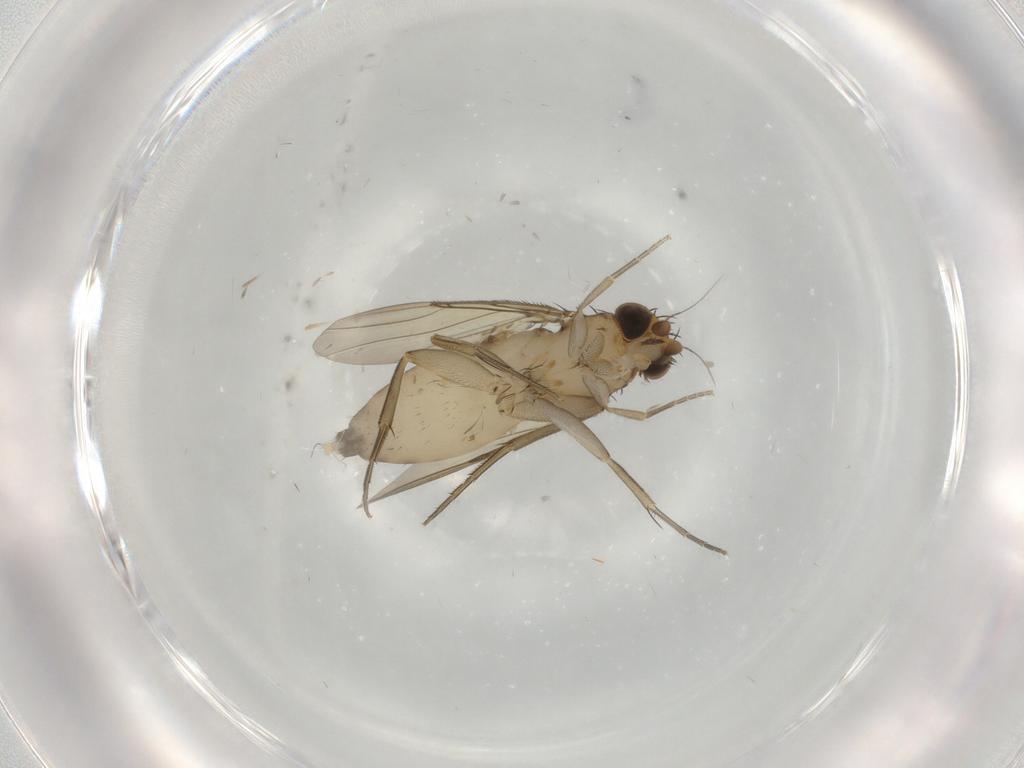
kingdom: Animalia
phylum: Arthropoda
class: Insecta
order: Diptera
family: Phoridae
